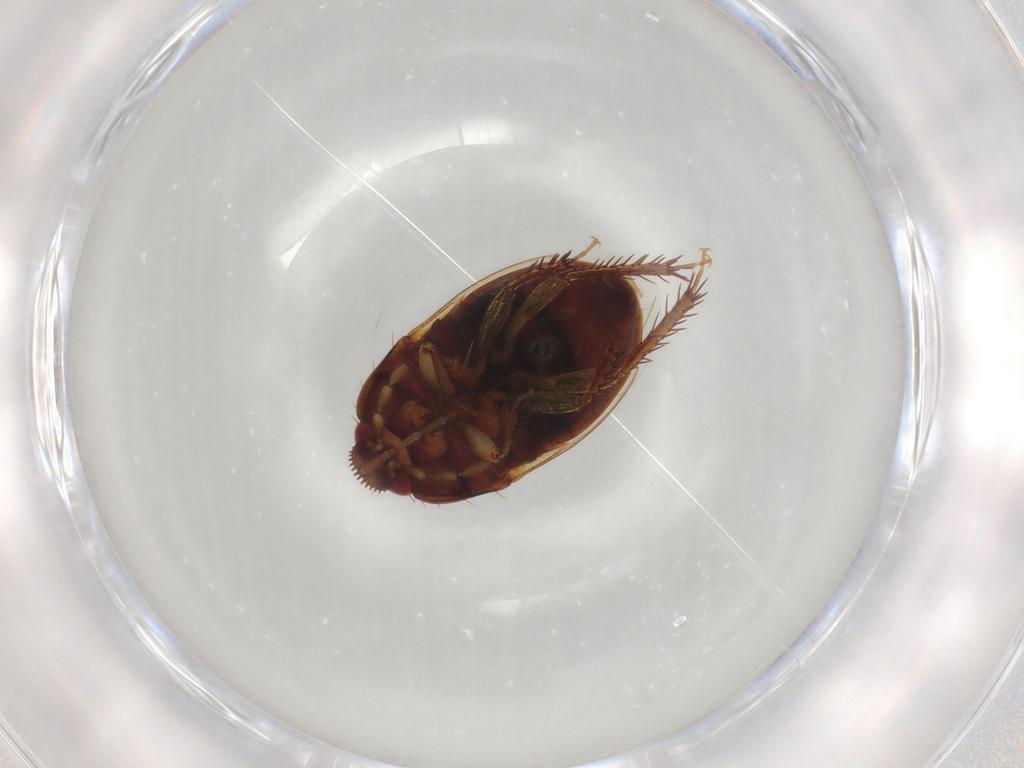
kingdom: Animalia
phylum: Arthropoda
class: Insecta
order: Hemiptera
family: Cydnidae
